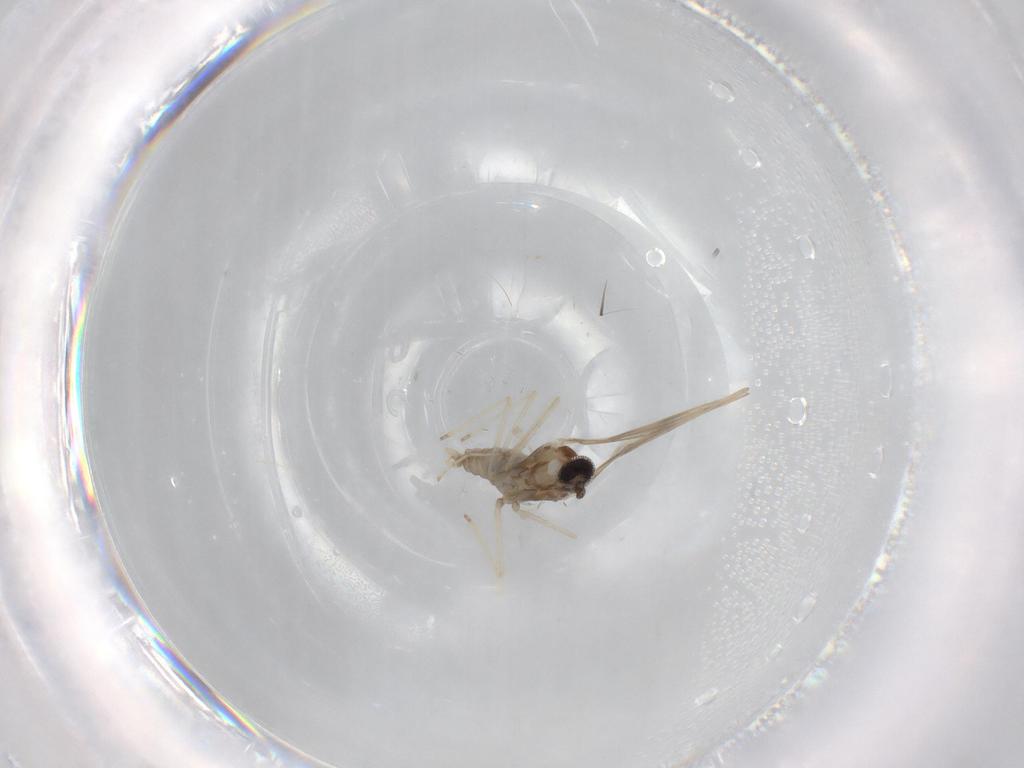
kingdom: Animalia
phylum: Arthropoda
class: Insecta
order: Diptera
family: Cecidomyiidae
